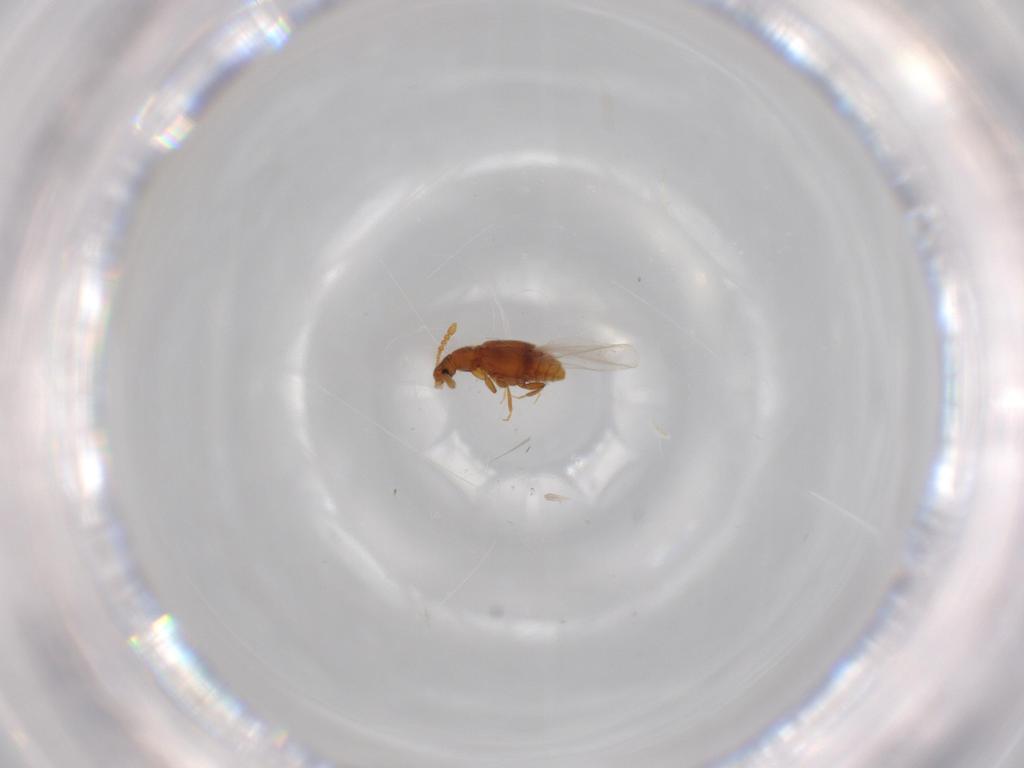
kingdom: Animalia
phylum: Arthropoda
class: Insecta
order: Coleoptera
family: Staphylinidae
